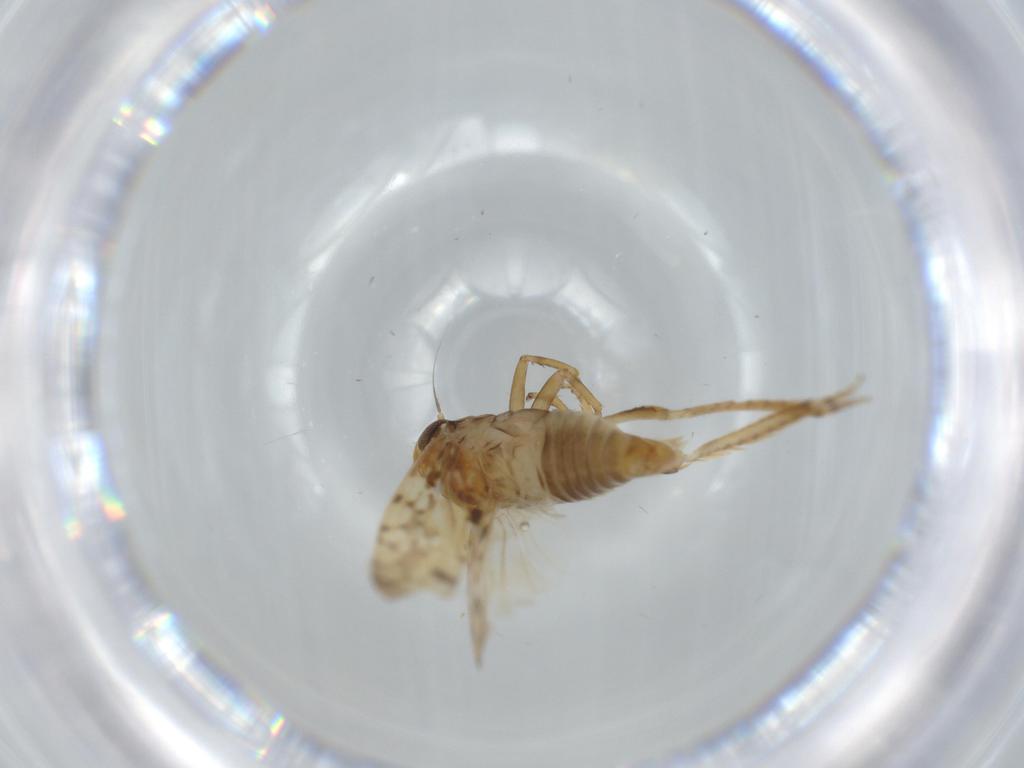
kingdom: Animalia
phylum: Arthropoda
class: Insecta
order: Hemiptera
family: Cicadellidae
